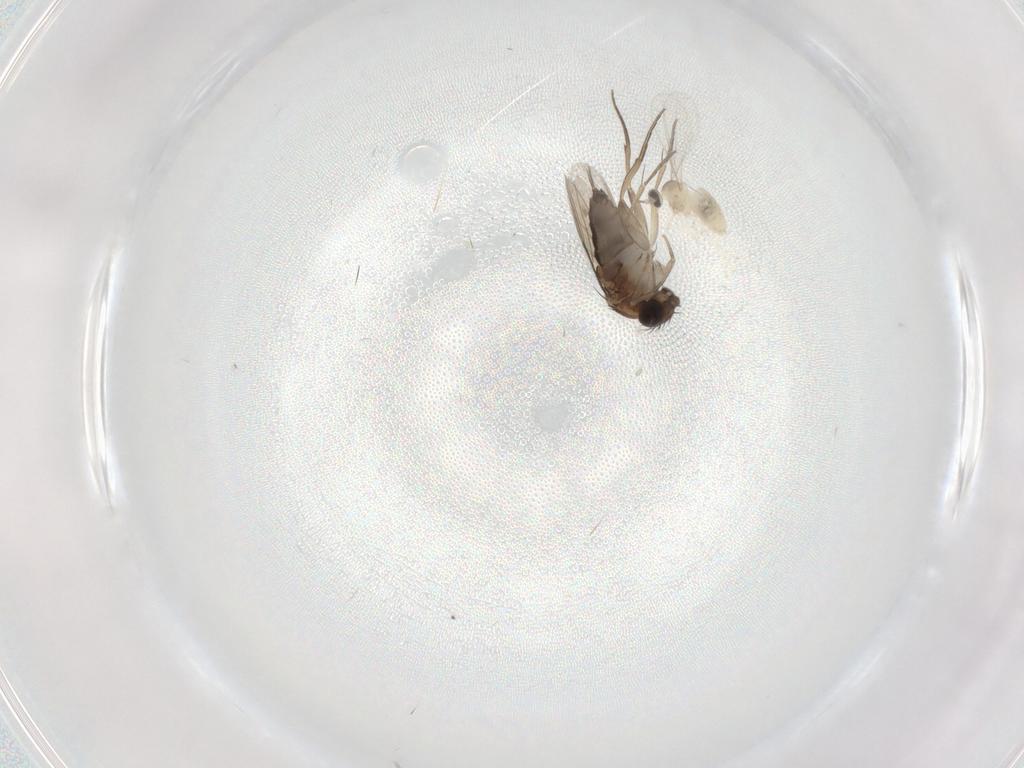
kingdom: Animalia
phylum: Arthropoda
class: Insecta
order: Diptera
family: Cecidomyiidae
